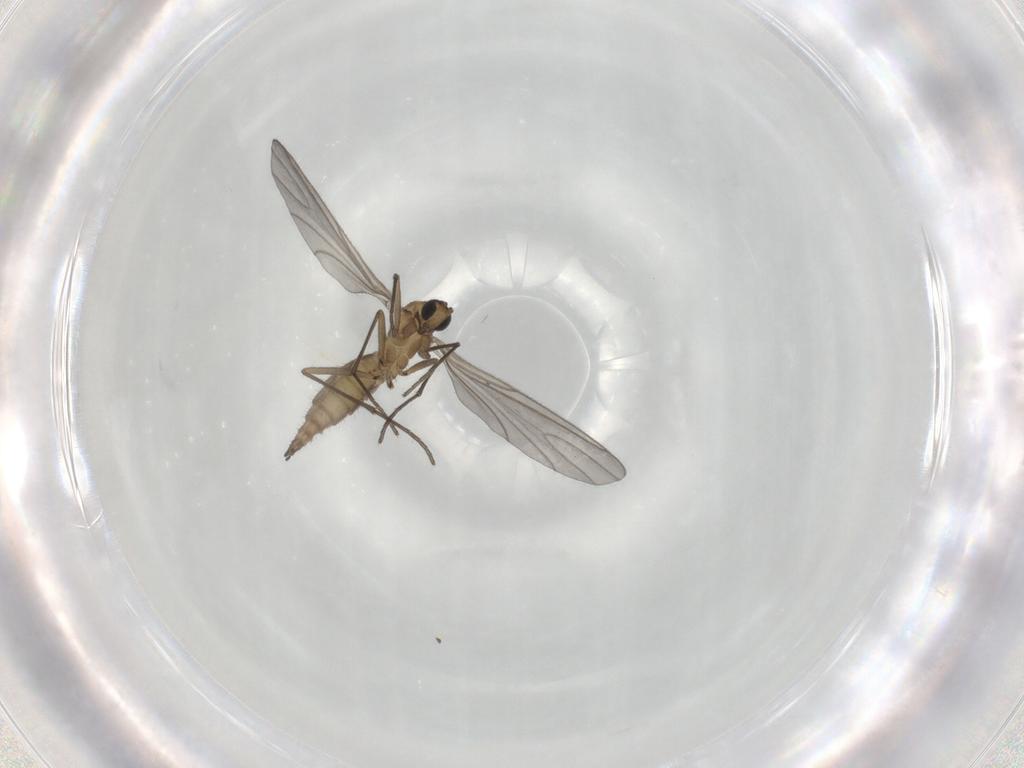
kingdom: Animalia
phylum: Arthropoda
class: Insecta
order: Diptera
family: Sciaridae
